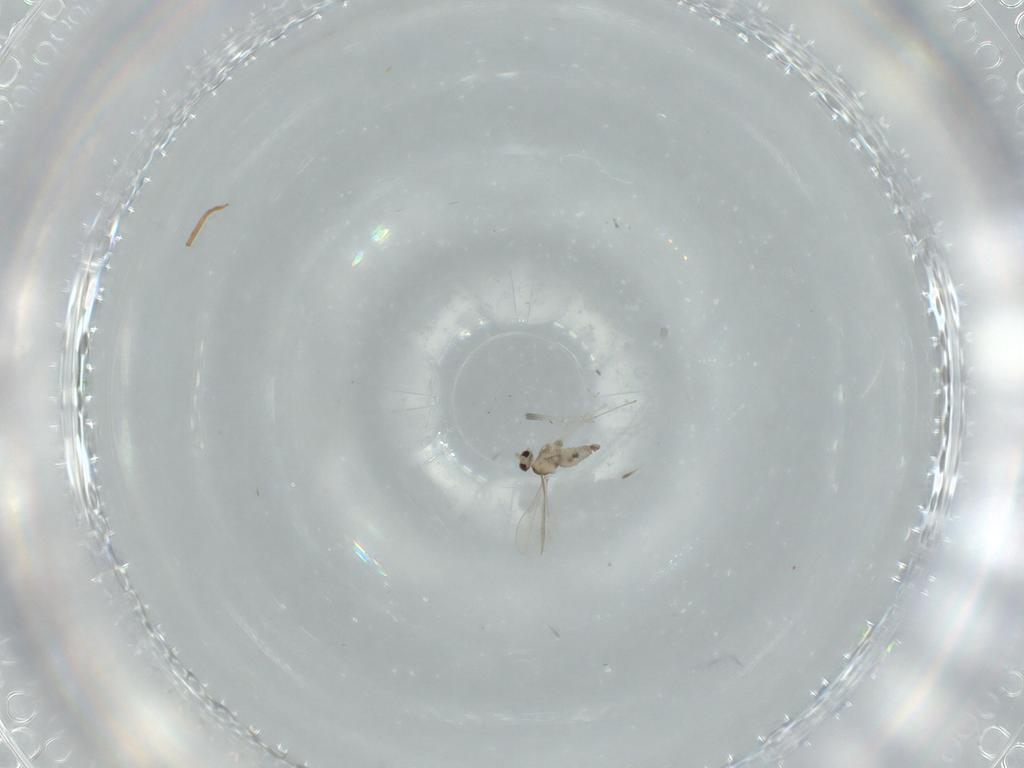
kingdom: Animalia
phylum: Arthropoda
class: Insecta
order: Diptera
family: Cecidomyiidae
